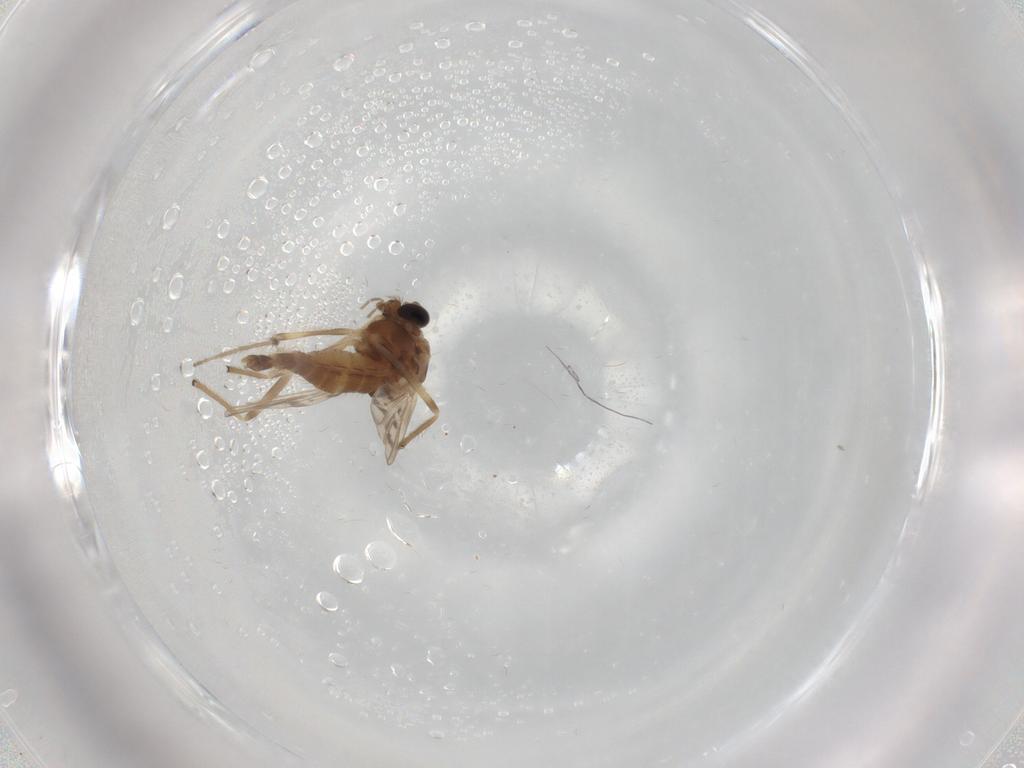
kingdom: Animalia
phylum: Arthropoda
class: Insecta
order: Diptera
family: Chironomidae
